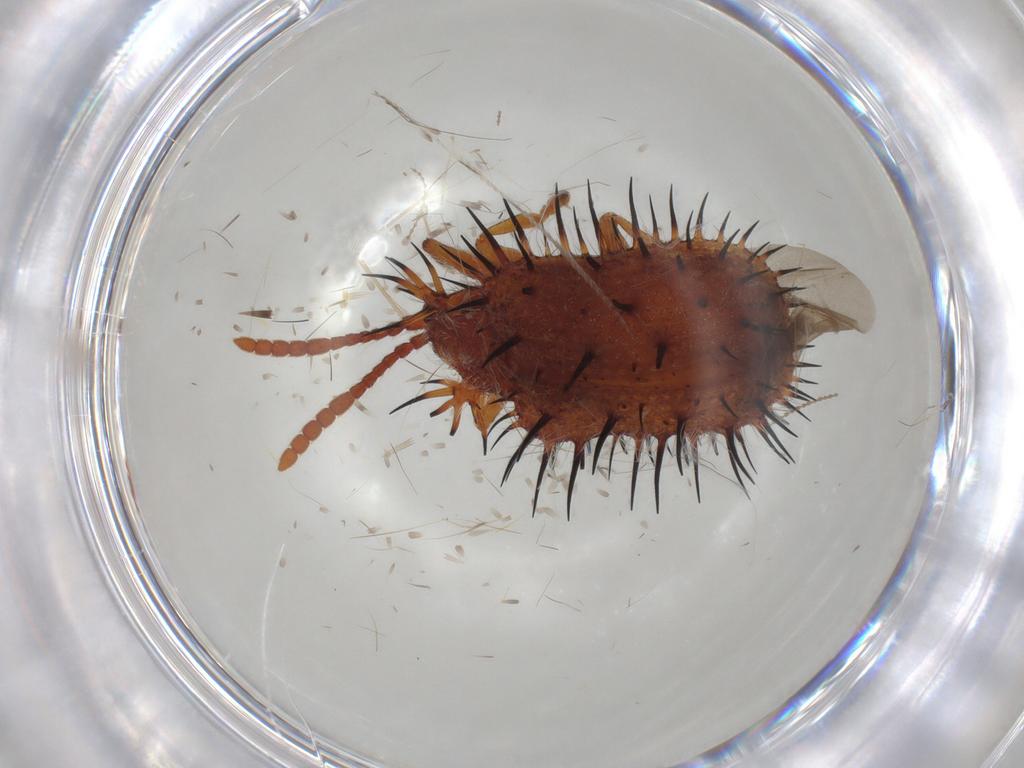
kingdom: Animalia
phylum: Arthropoda
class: Insecta
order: Coleoptera
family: Chrysomelidae
